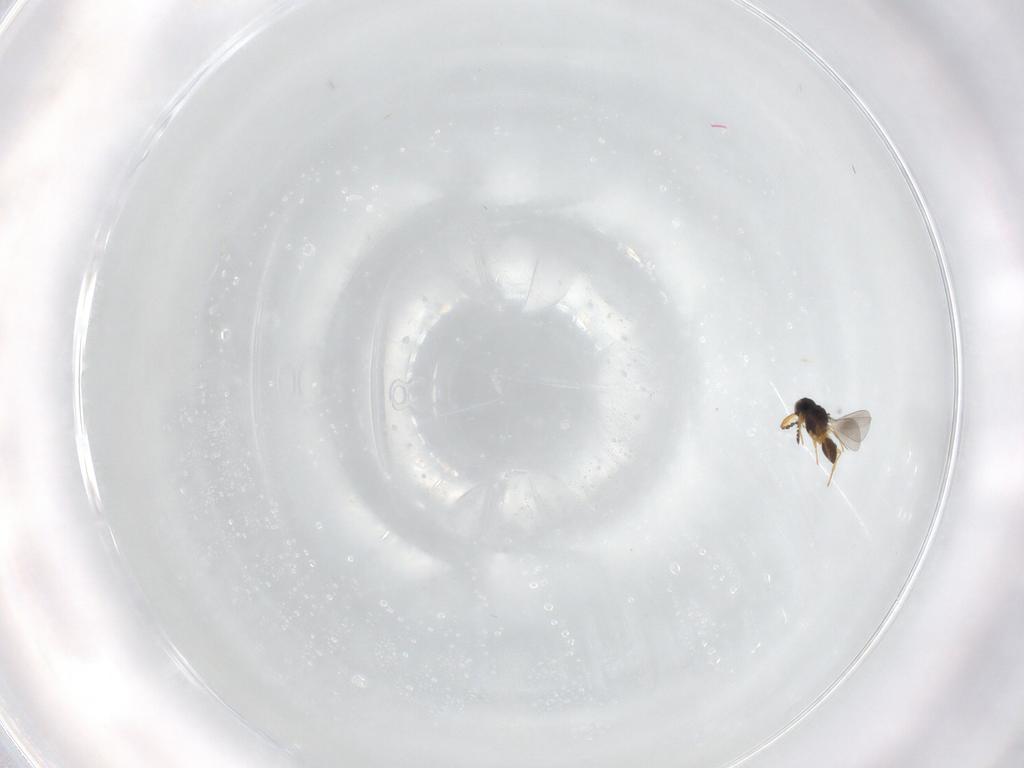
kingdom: Animalia
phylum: Arthropoda
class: Insecta
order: Hymenoptera
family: Platygastridae
